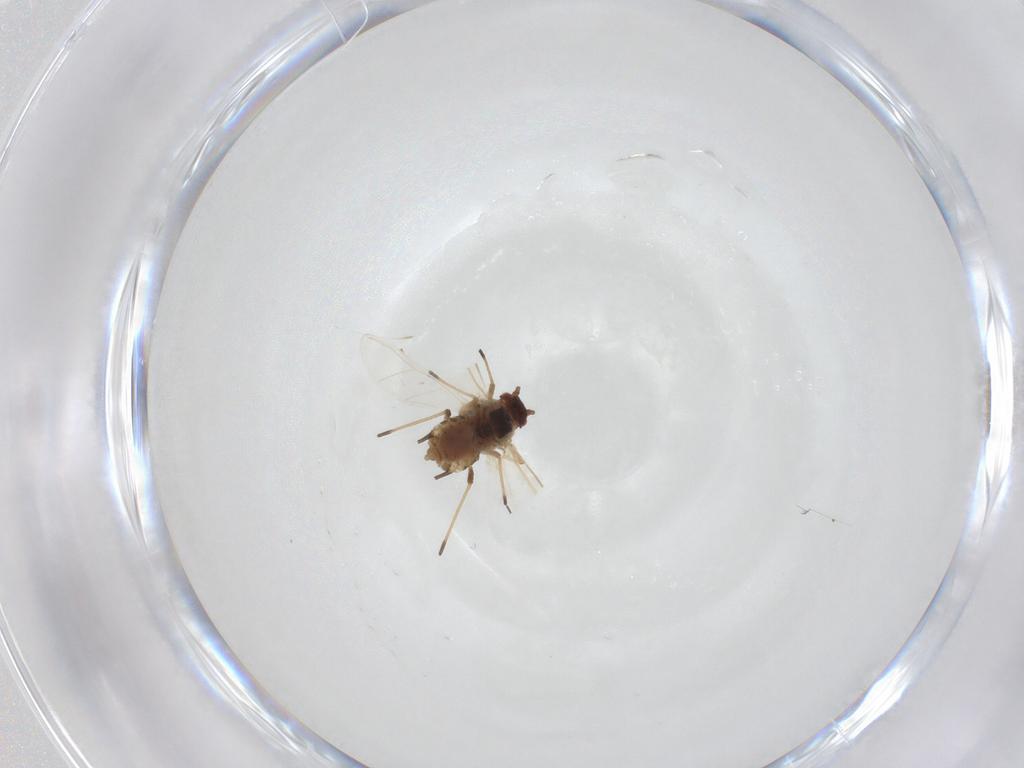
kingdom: Animalia
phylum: Arthropoda
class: Insecta
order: Hemiptera
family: Aphididae
